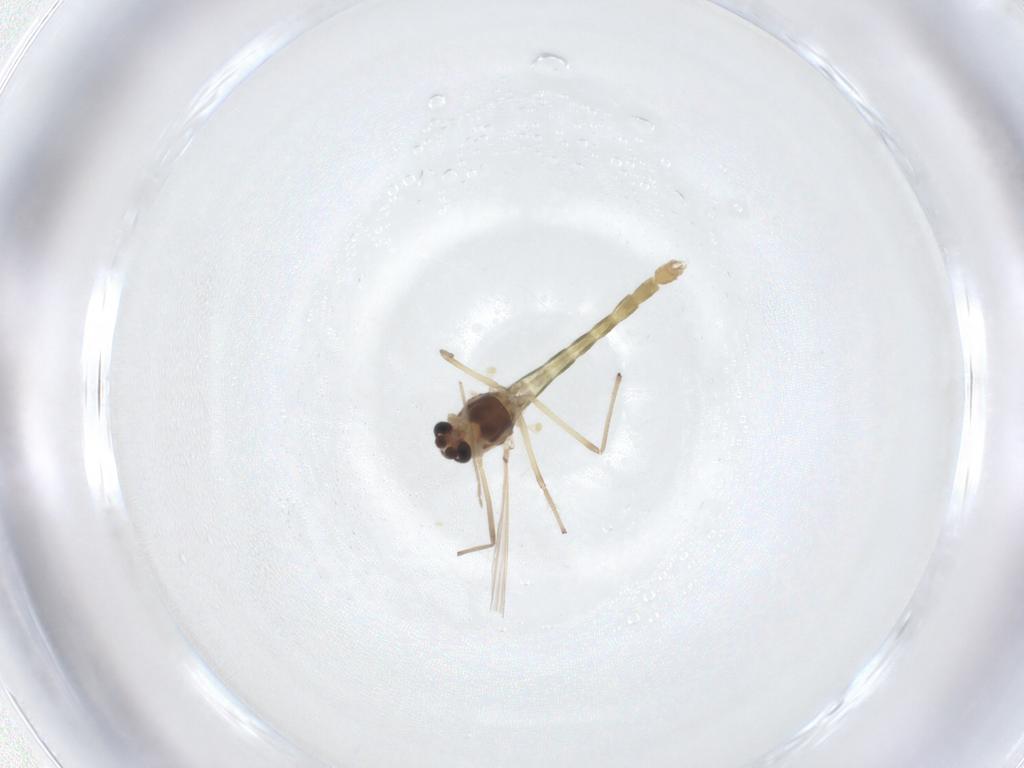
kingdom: Animalia
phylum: Arthropoda
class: Insecta
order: Diptera
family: Chironomidae
